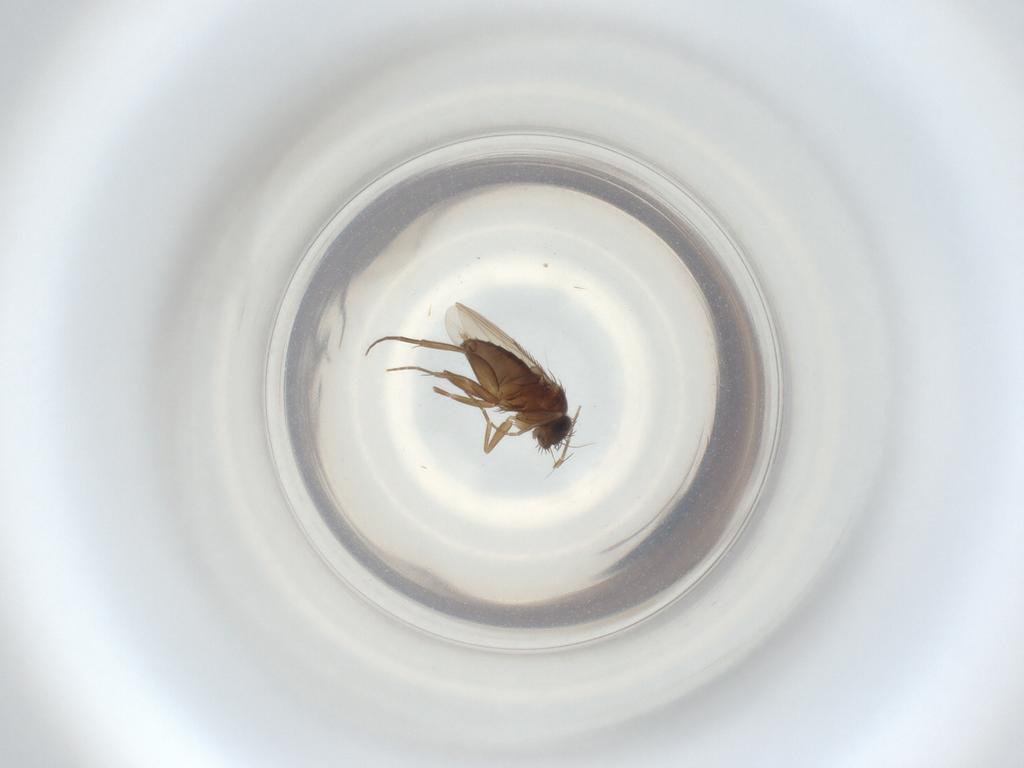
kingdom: Animalia
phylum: Arthropoda
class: Insecta
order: Diptera
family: Phoridae
